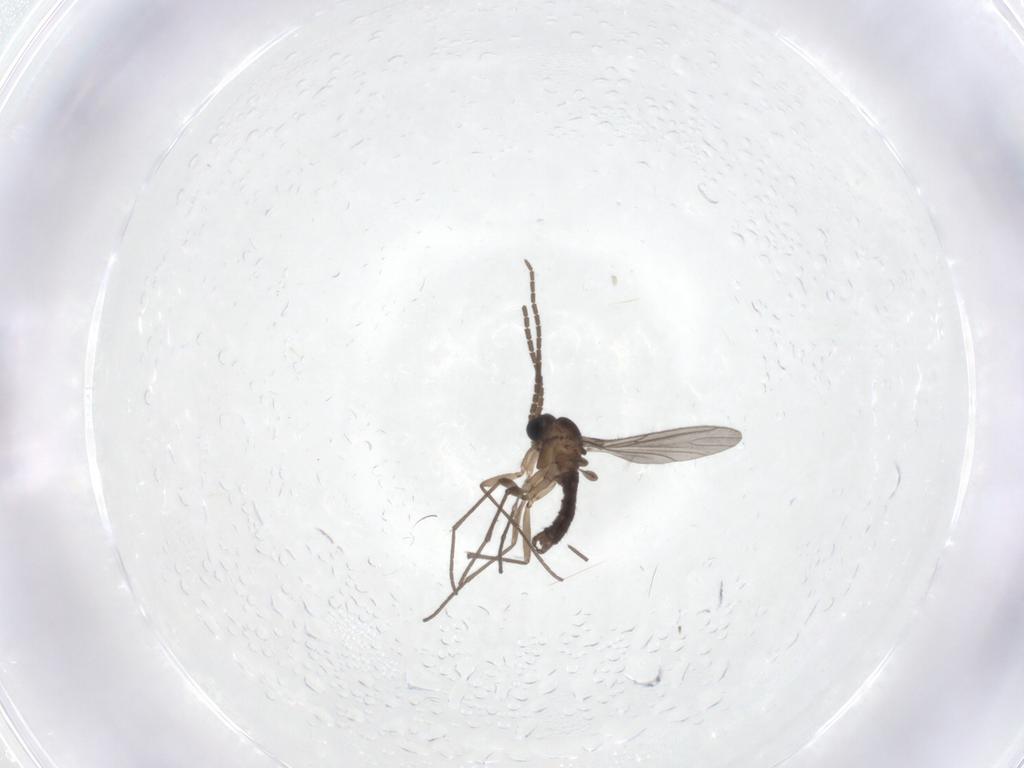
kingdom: Animalia
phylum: Arthropoda
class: Insecta
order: Diptera
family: Sciaridae
